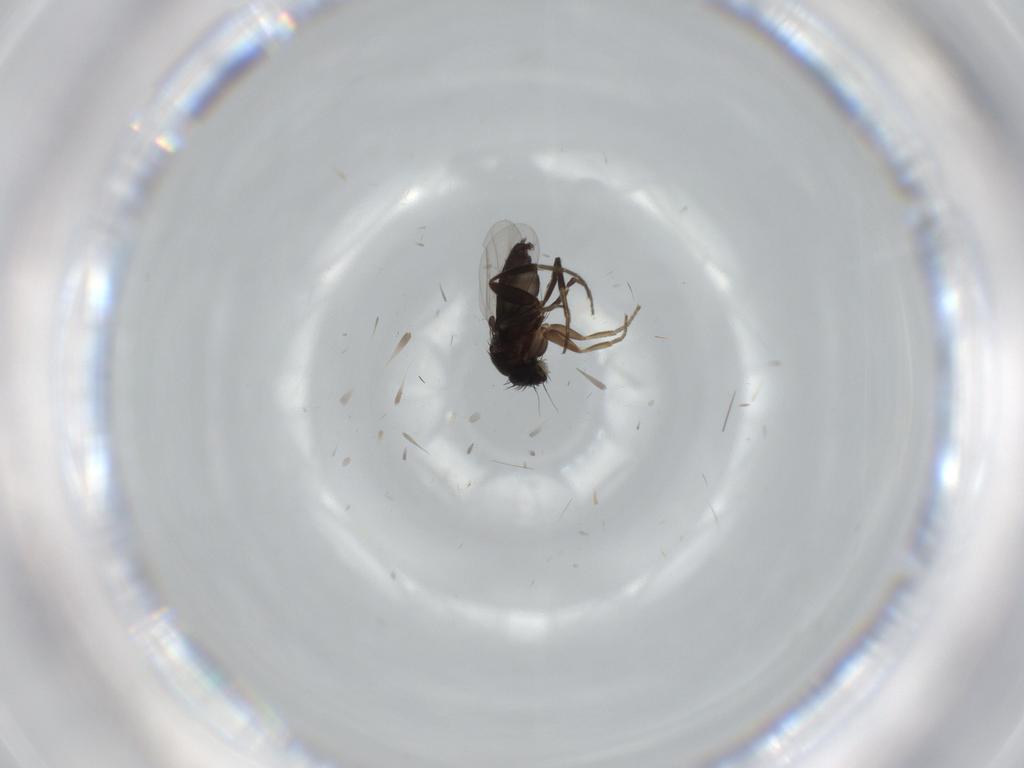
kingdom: Animalia
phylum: Arthropoda
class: Insecta
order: Diptera
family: Phoridae
